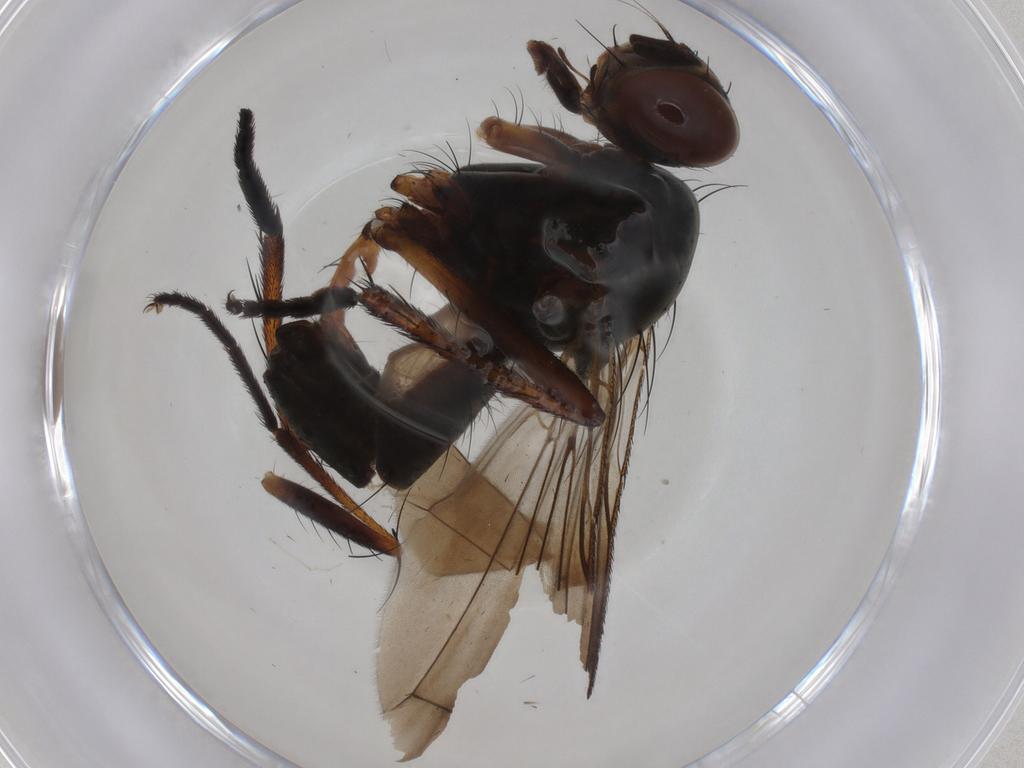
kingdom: Animalia
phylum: Arthropoda
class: Insecta
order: Diptera
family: Anthomyiidae
